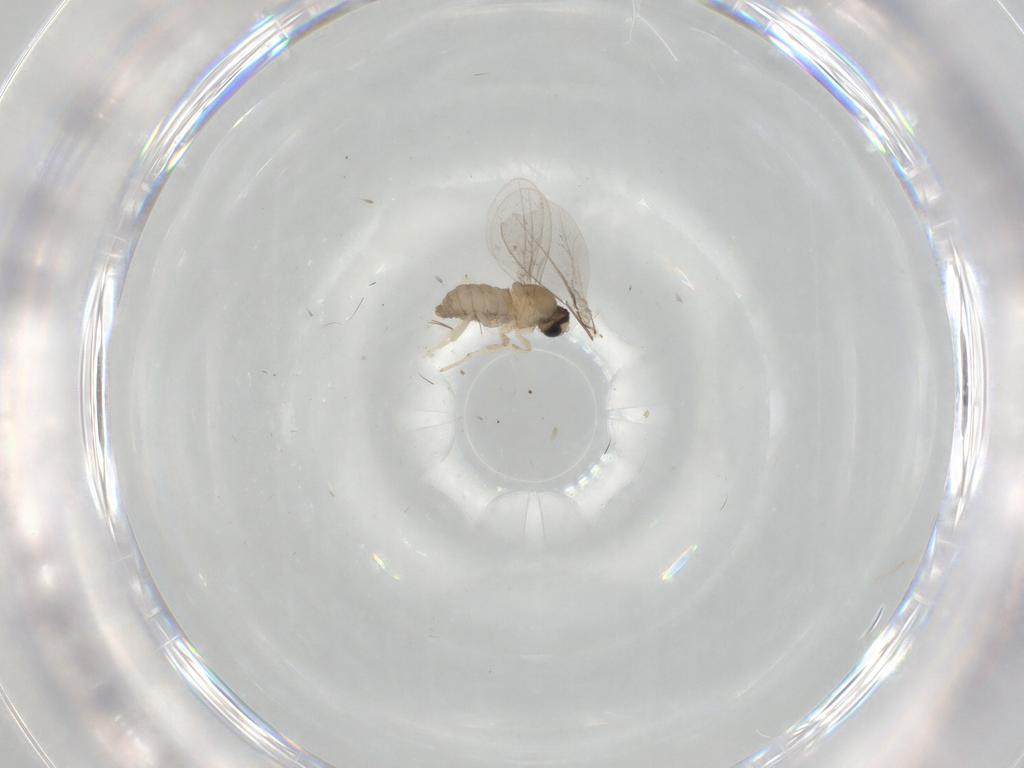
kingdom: Animalia
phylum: Arthropoda
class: Insecta
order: Diptera
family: Cecidomyiidae
